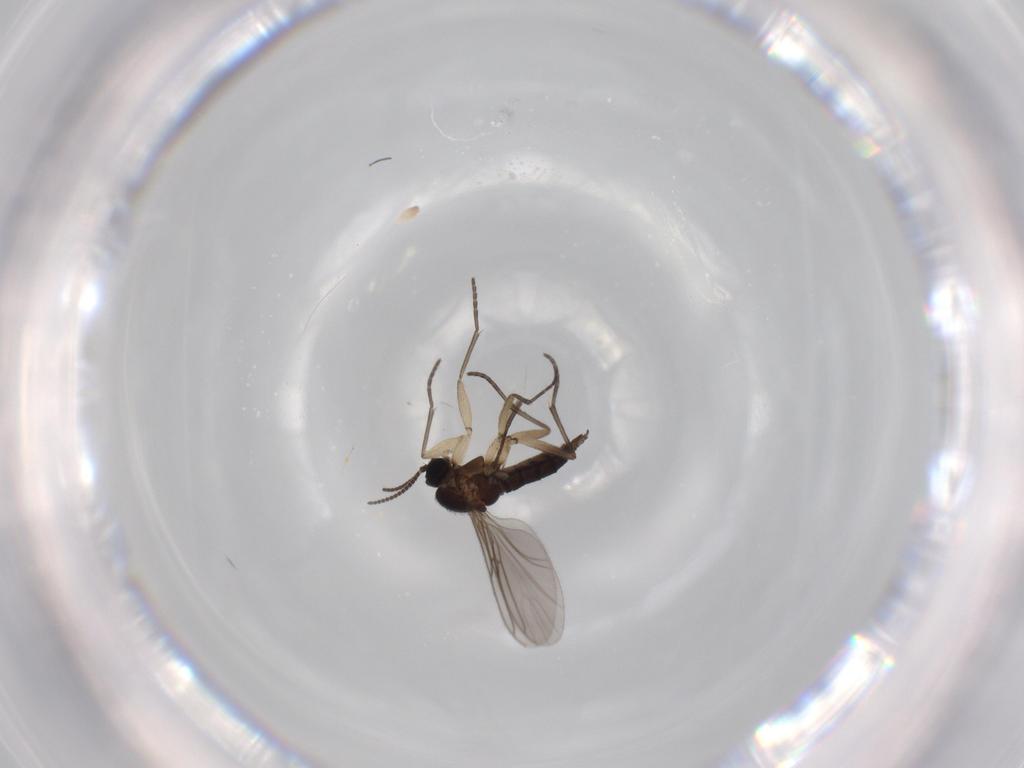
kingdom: Animalia
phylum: Arthropoda
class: Insecta
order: Diptera
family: Sciaridae
